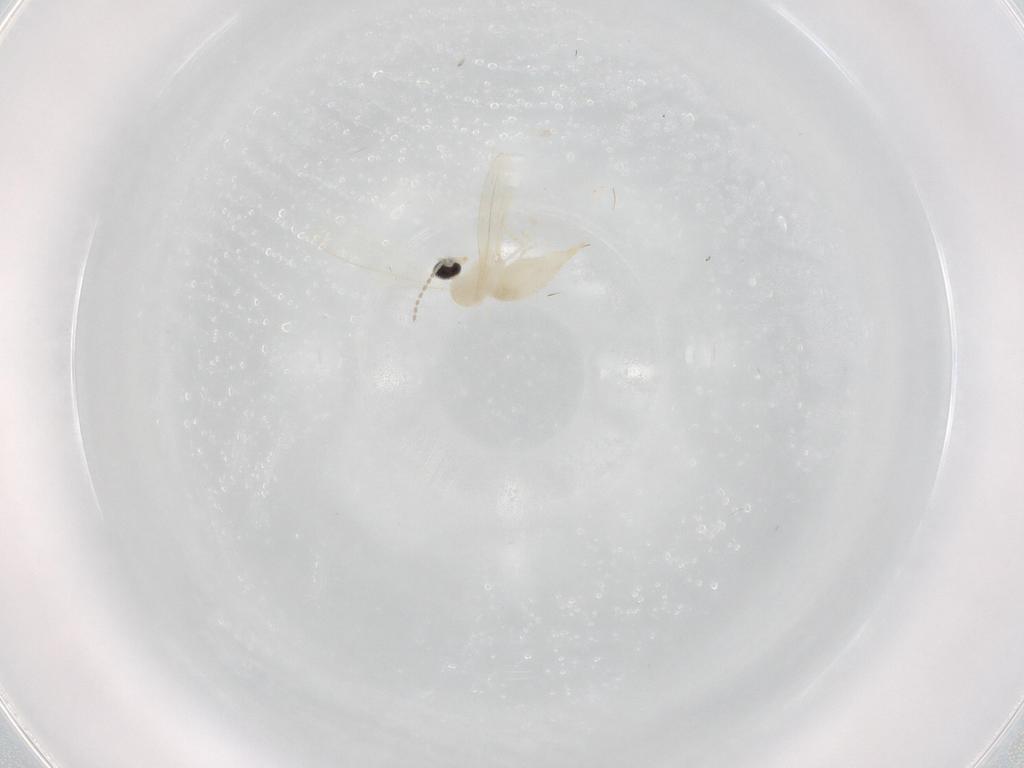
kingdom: Animalia
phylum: Arthropoda
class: Insecta
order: Diptera
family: Cecidomyiidae
